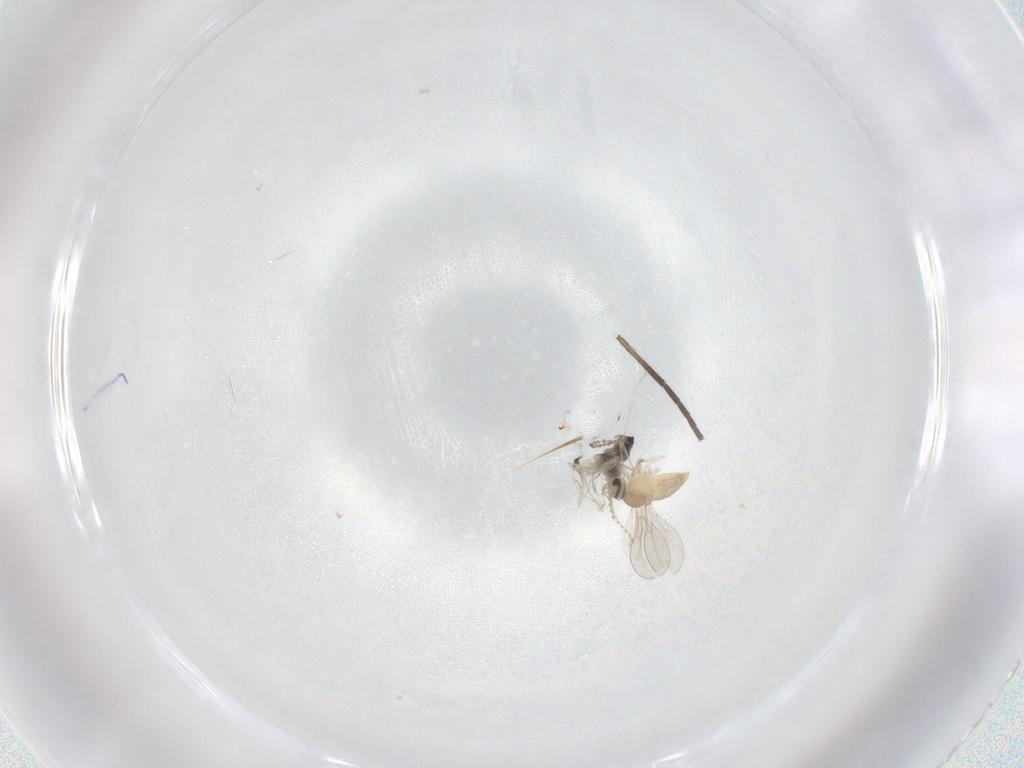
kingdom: Animalia
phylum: Arthropoda
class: Insecta
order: Diptera
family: Cecidomyiidae
